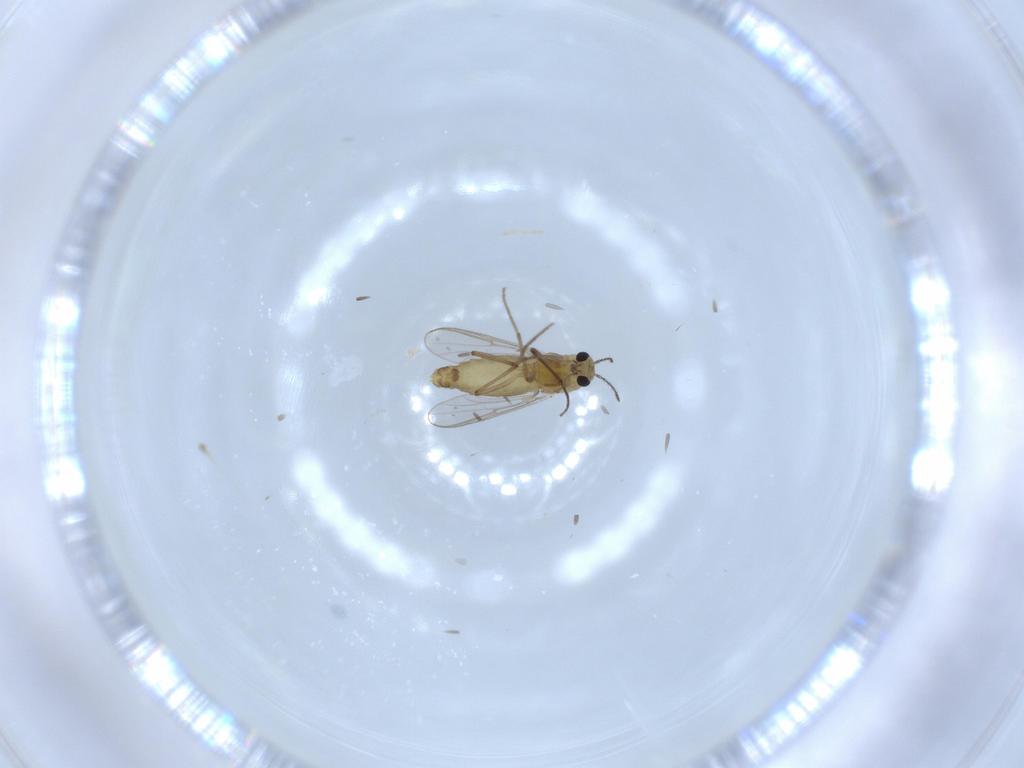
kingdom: Animalia
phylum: Arthropoda
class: Insecta
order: Diptera
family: Chironomidae
